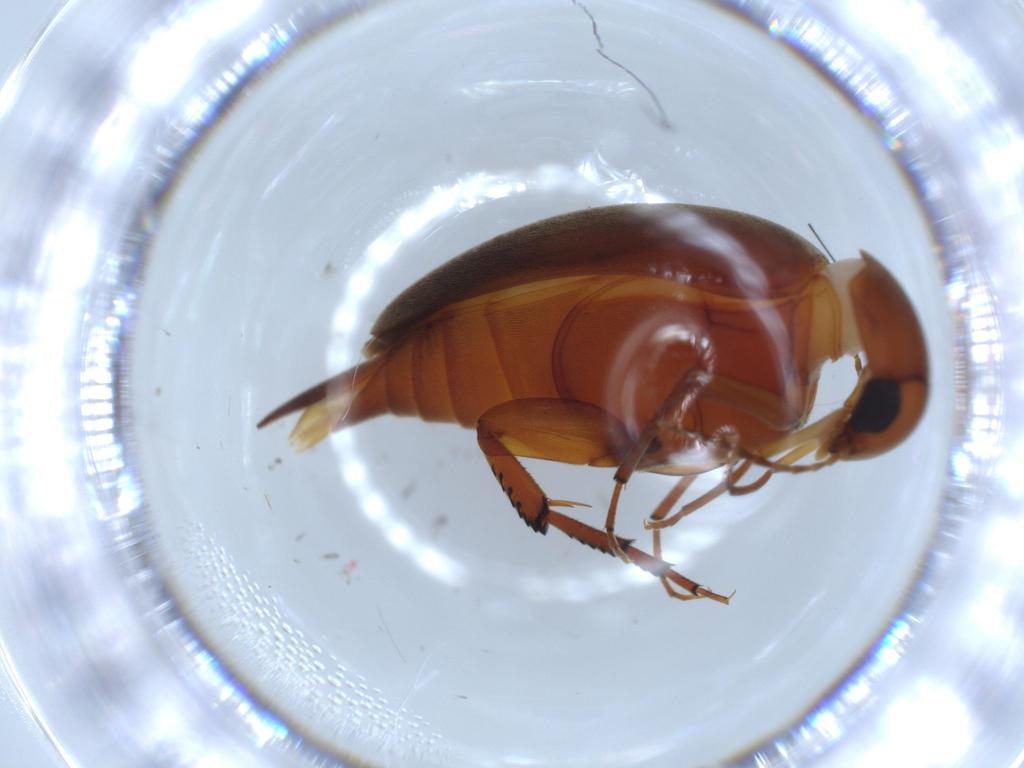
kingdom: Animalia
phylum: Arthropoda
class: Insecta
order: Coleoptera
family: Mordellidae
